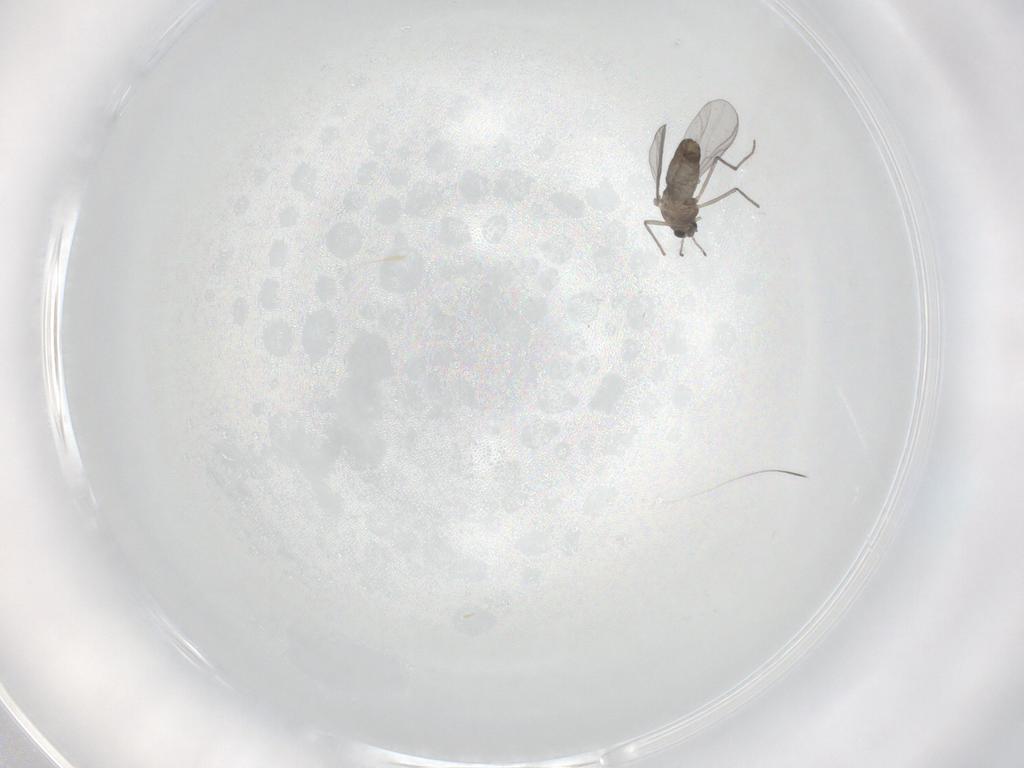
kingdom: Animalia
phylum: Arthropoda
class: Insecta
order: Diptera
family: Chironomidae
